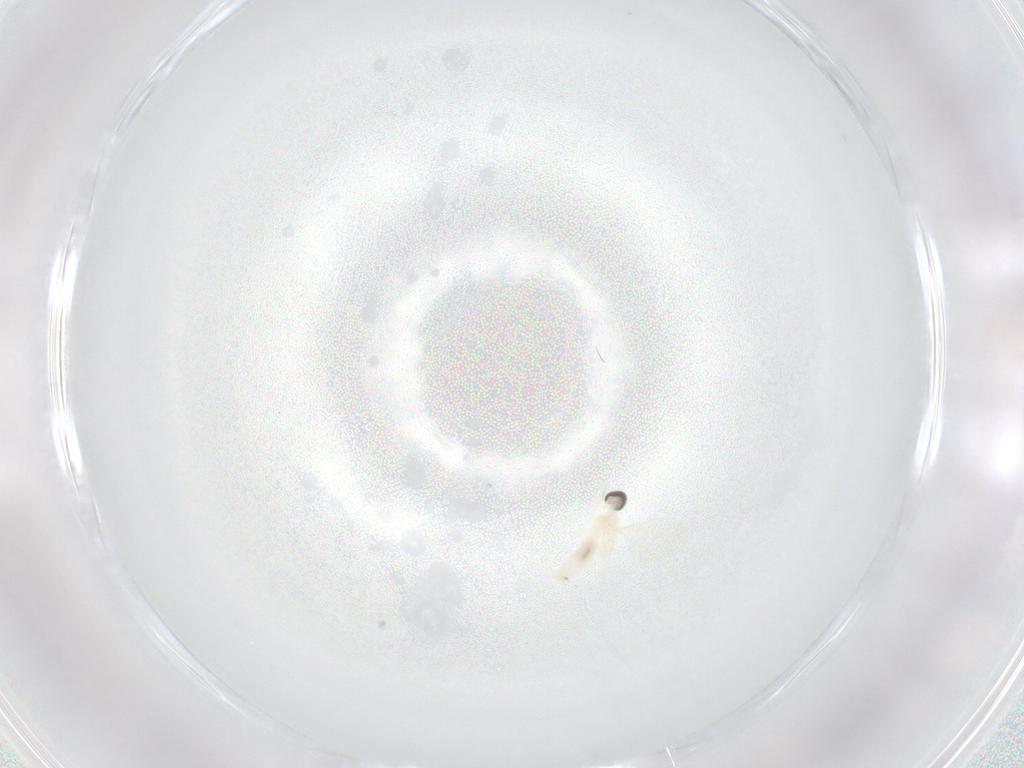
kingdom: Animalia
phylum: Arthropoda
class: Insecta
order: Diptera
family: Cecidomyiidae
